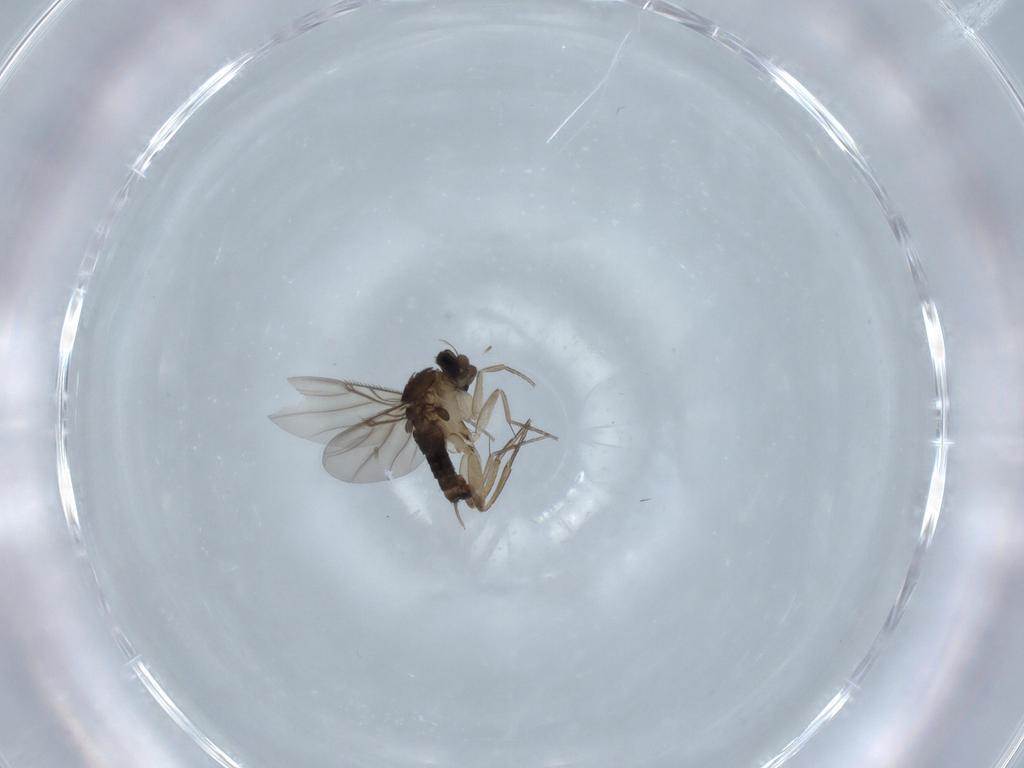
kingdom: Animalia
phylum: Arthropoda
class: Insecta
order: Diptera
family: Phoridae
